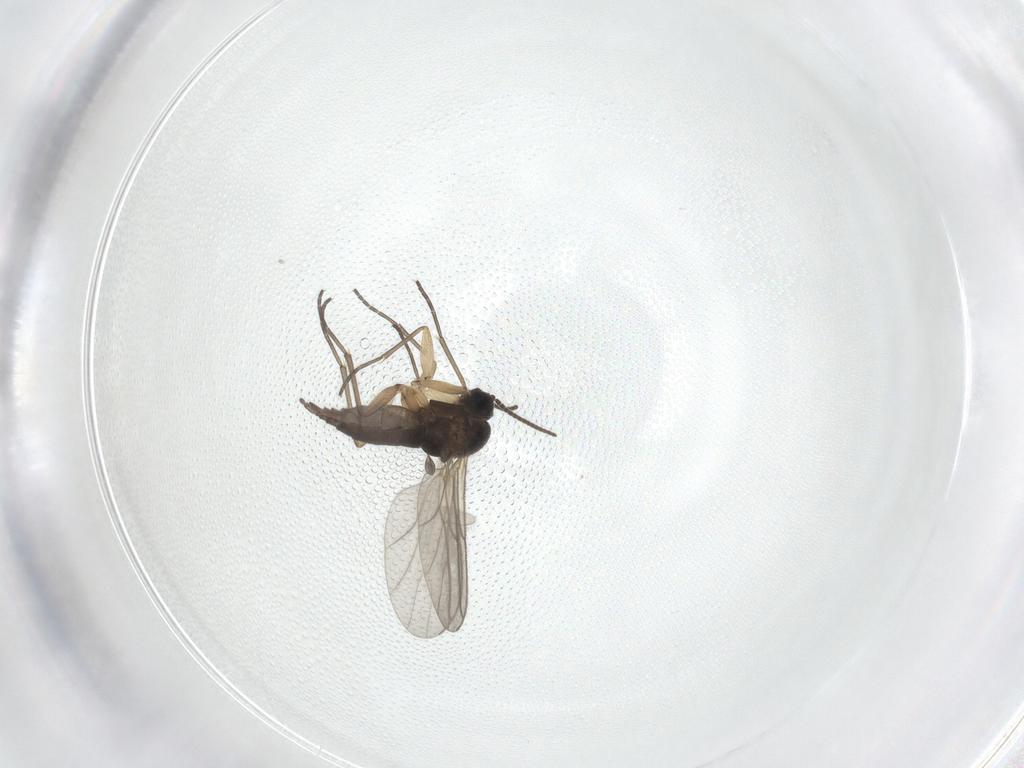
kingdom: Animalia
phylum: Arthropoda
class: Insecta
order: Diptera
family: Sciaridae
